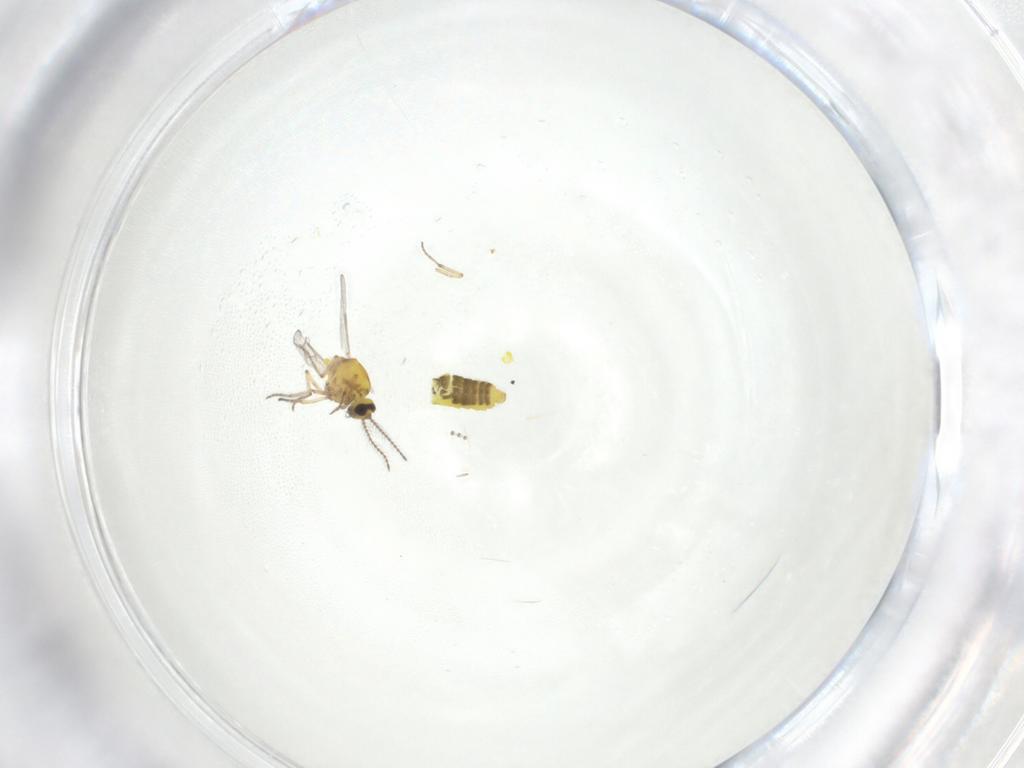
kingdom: Animalia
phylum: Arthropoda
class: Insecta
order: Diptera
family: Psychodidae
